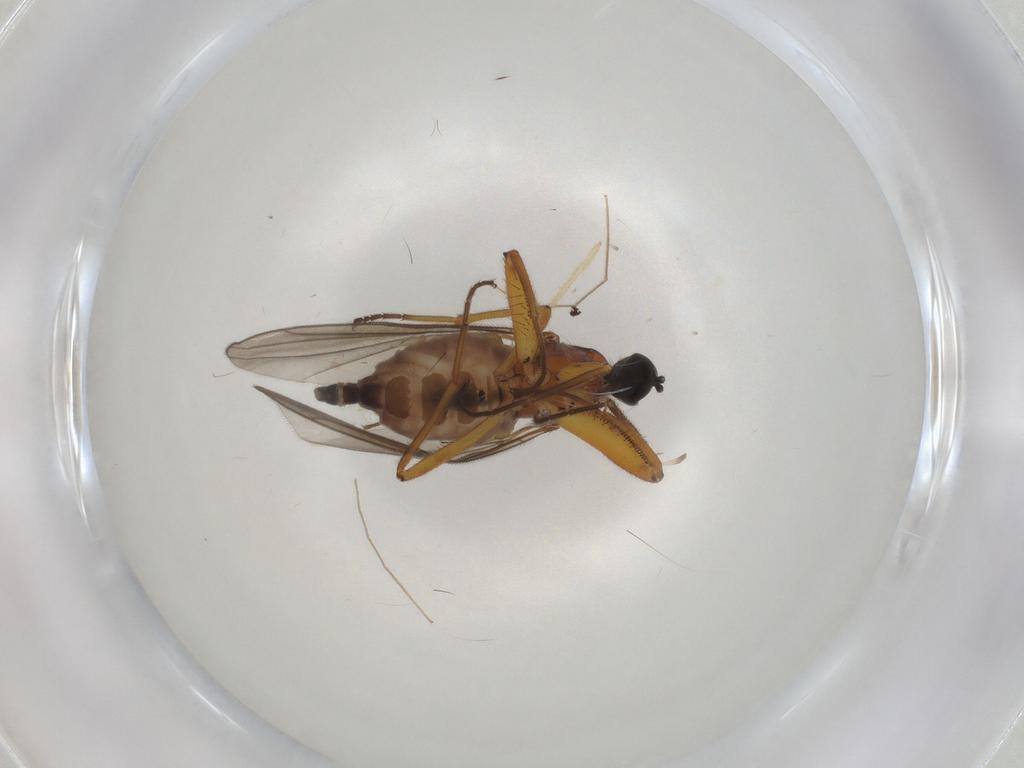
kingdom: Animalia
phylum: Arthropoda
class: Insecta
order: Diptera
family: Hybotidae
